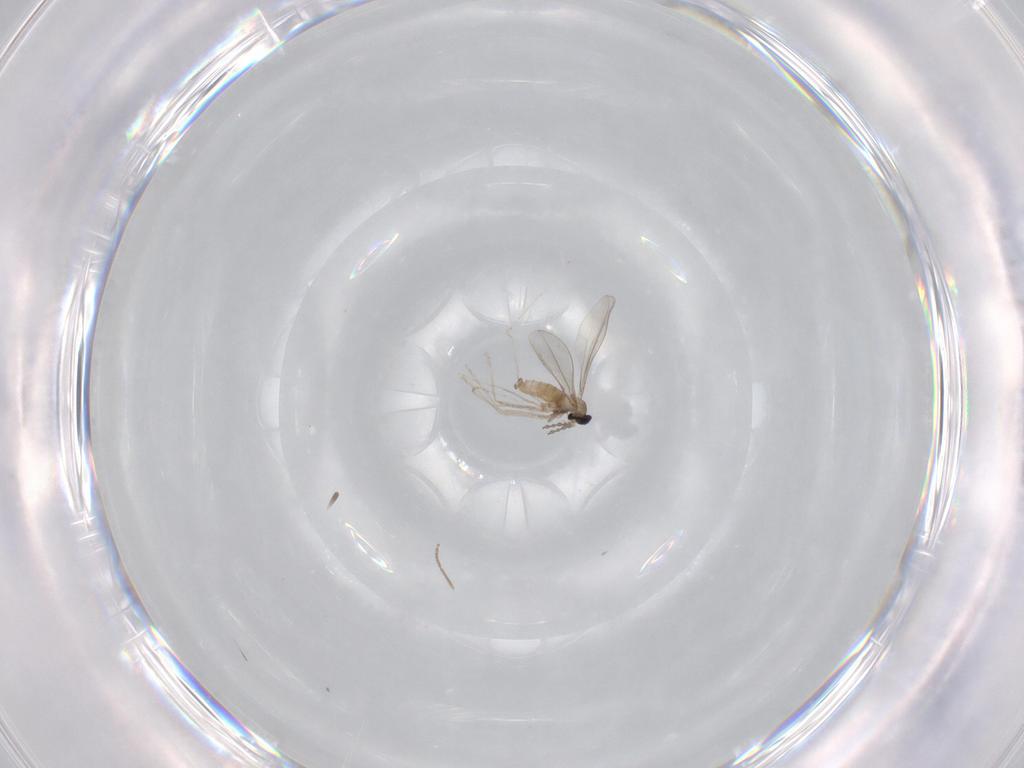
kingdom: Animalia
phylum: Arthropoda
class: Insecta
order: Diptera
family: Chironomidae
